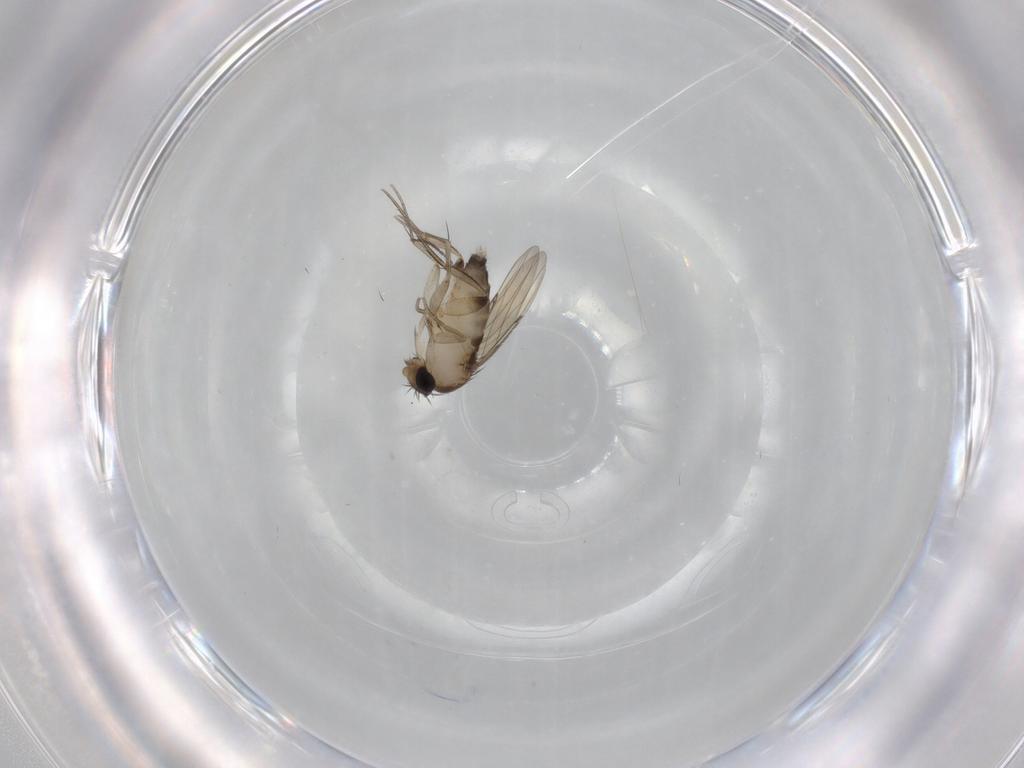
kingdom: Animalia
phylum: Arthropoda
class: Insecta
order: Diptera
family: Phoridae
